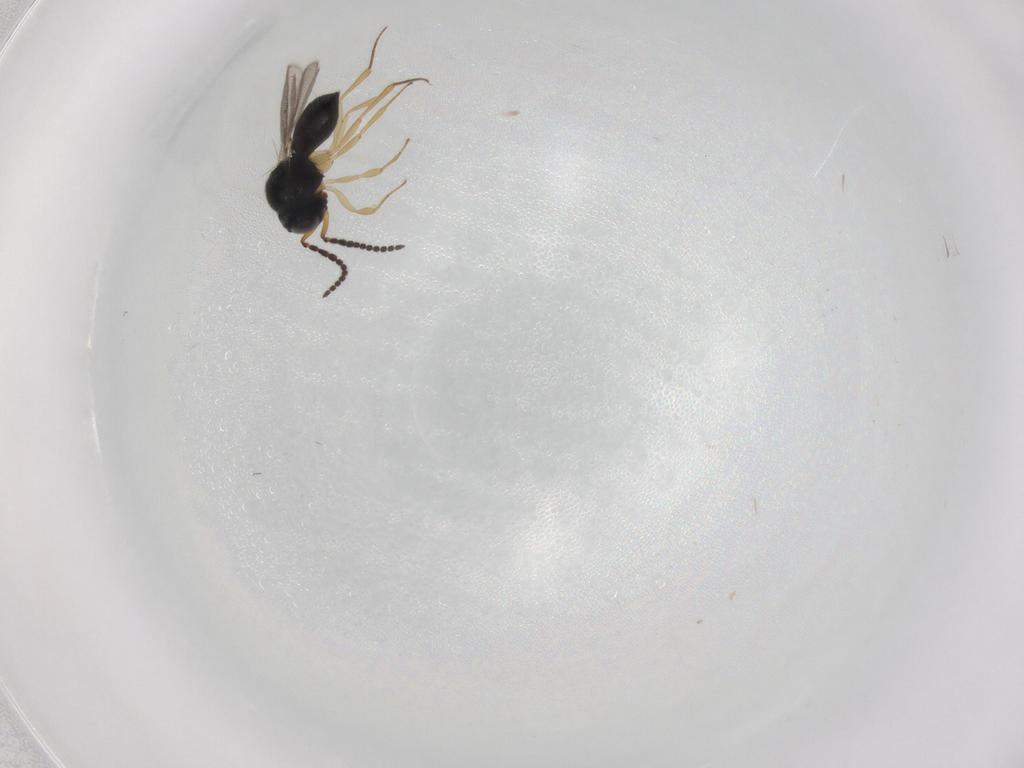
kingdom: Animalia
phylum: Arthropoda
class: Insecta
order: Hymenoptera
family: Scelionidae
